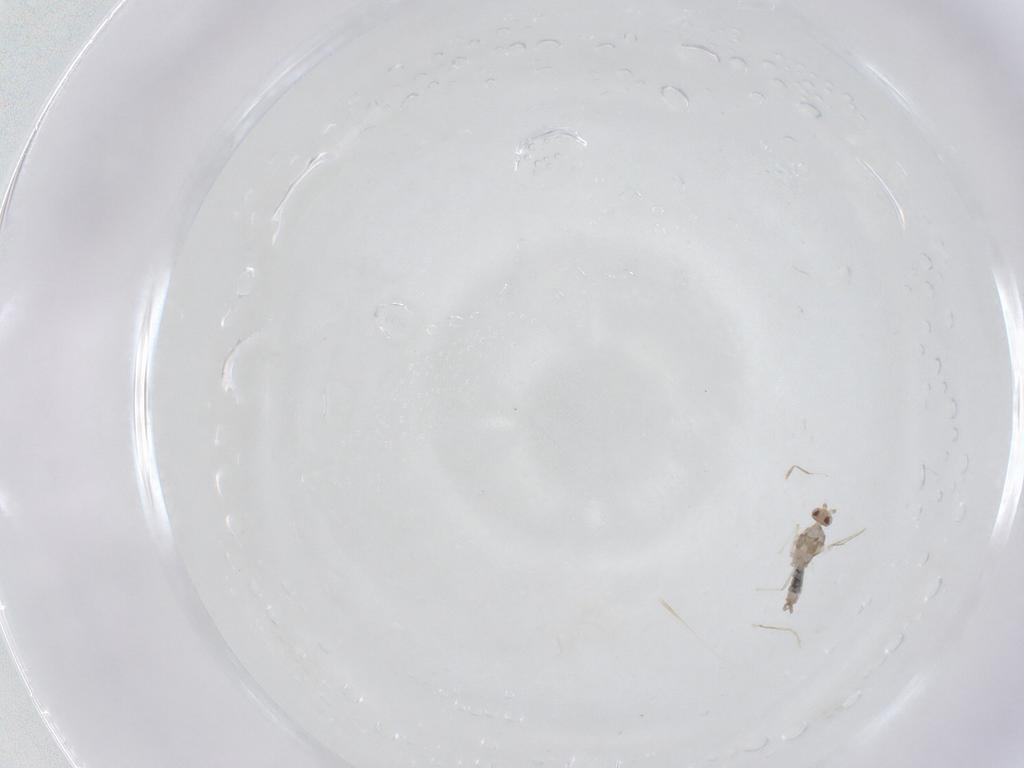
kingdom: Animalia
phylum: Arthropoda
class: Insecta
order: Diptera
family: Cecidomyiidae
